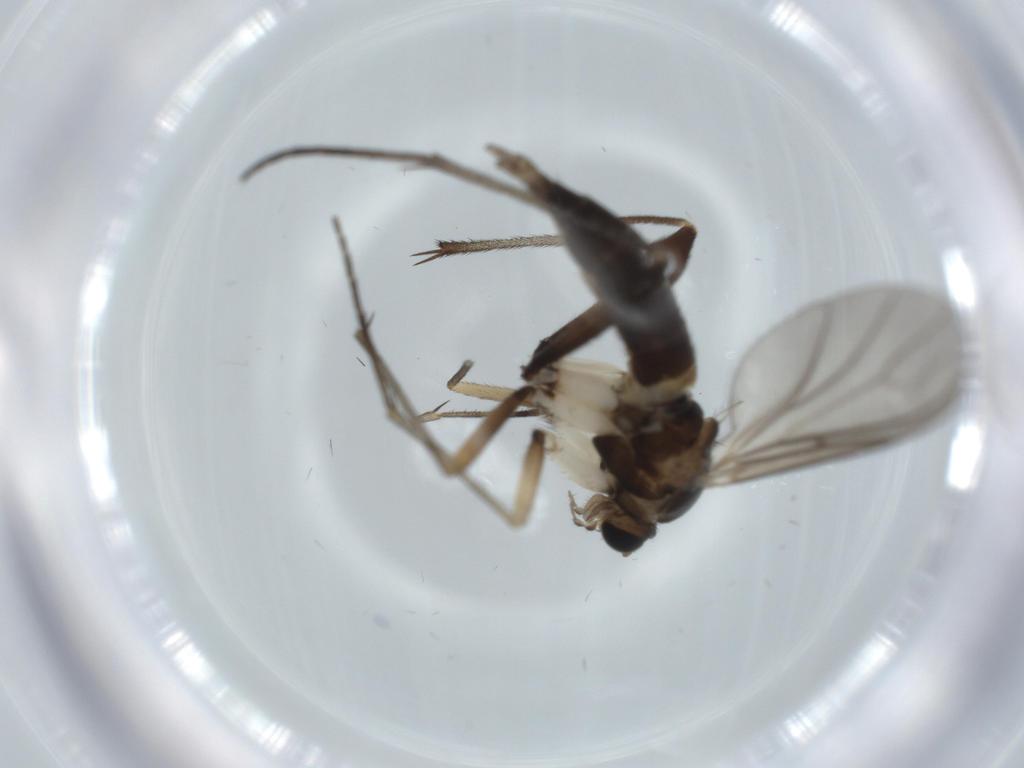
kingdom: Animalia
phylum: Arthropoda
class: Insecta
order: Diptera
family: Sciaridae
